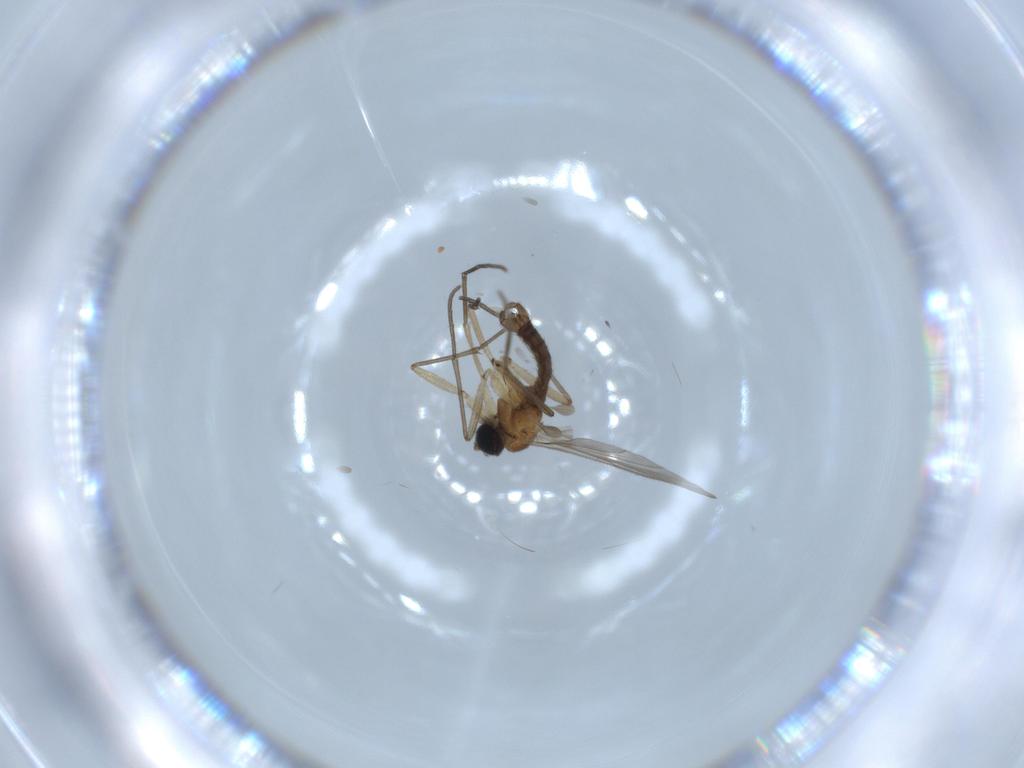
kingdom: Animalia
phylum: Arthropoda
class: Insecta
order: Diptera
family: Sciaridae
